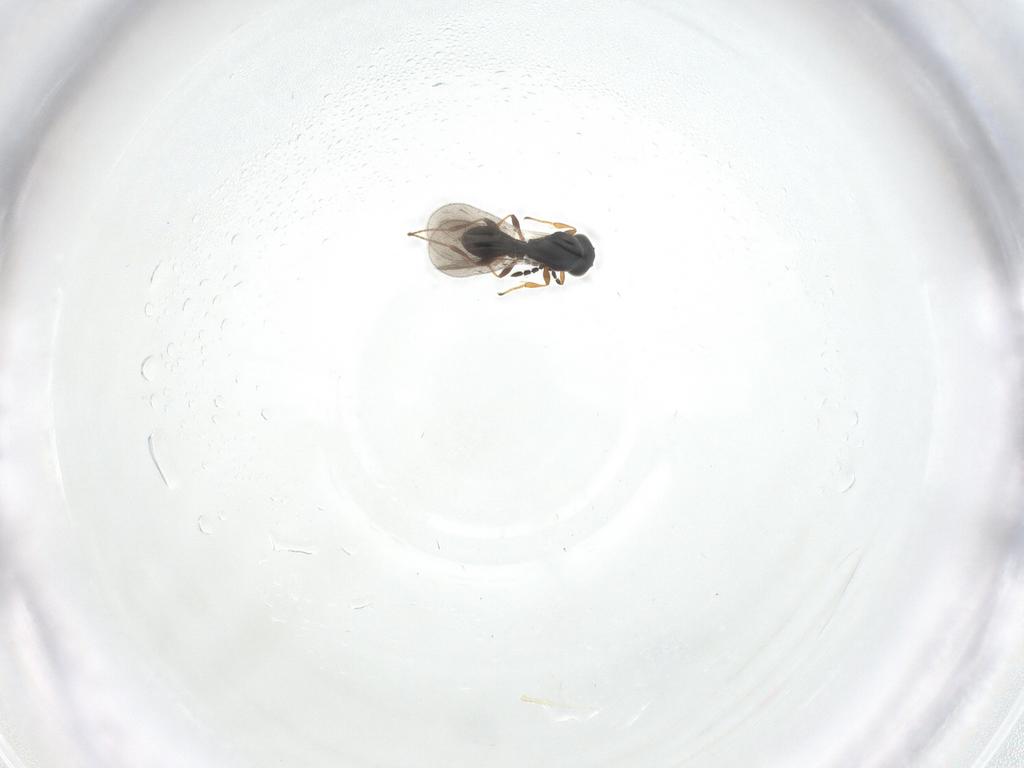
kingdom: Animalia
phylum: Arthropoda
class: Insecta
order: Hymenoptera
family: Platygastridae
